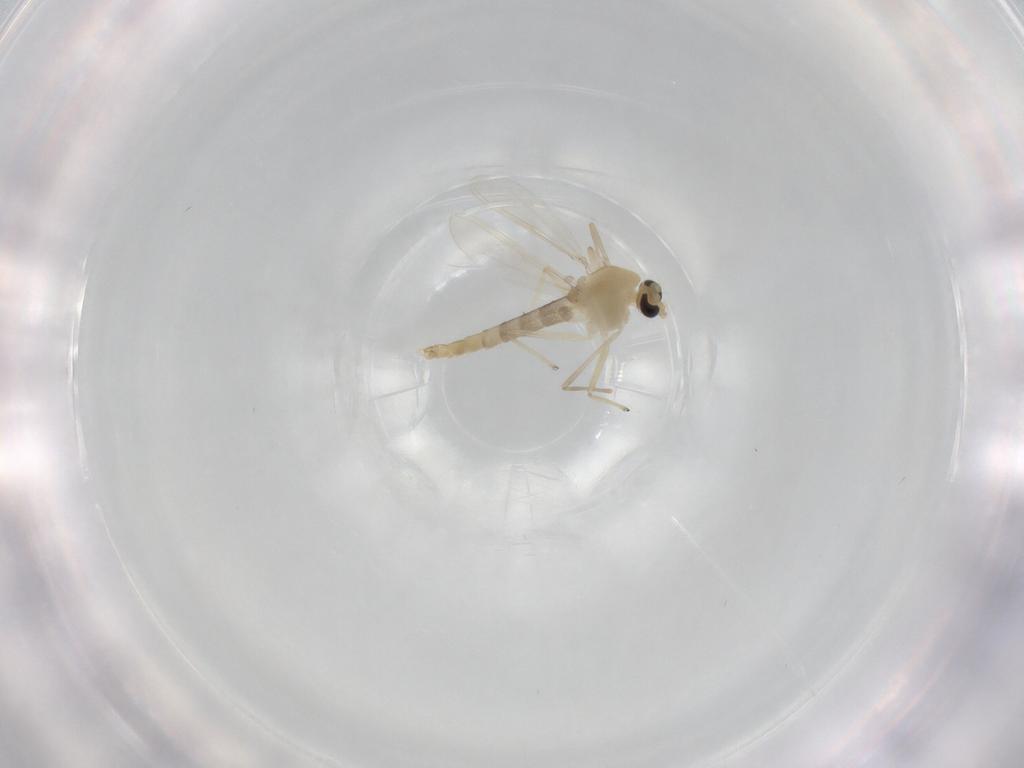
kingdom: Animalia
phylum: Arthropoda
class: Insecta
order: Diptera
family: Chironomidae
